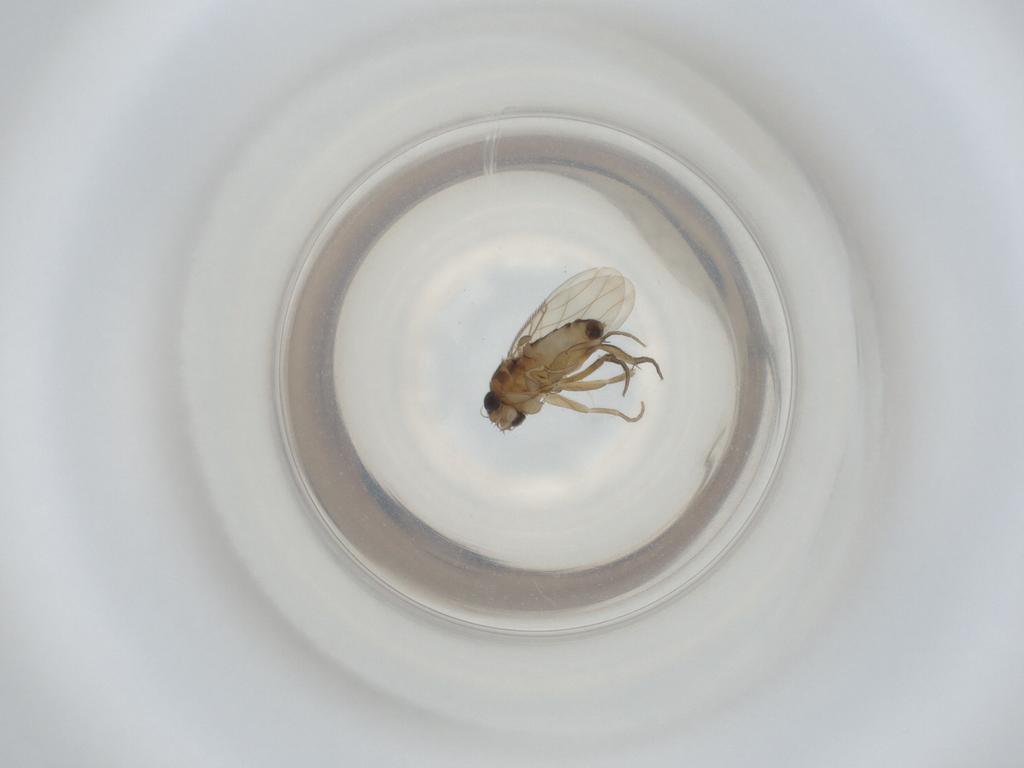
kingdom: Animalia
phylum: Arthropoda
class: Insecta
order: Diptera
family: Phoridae
